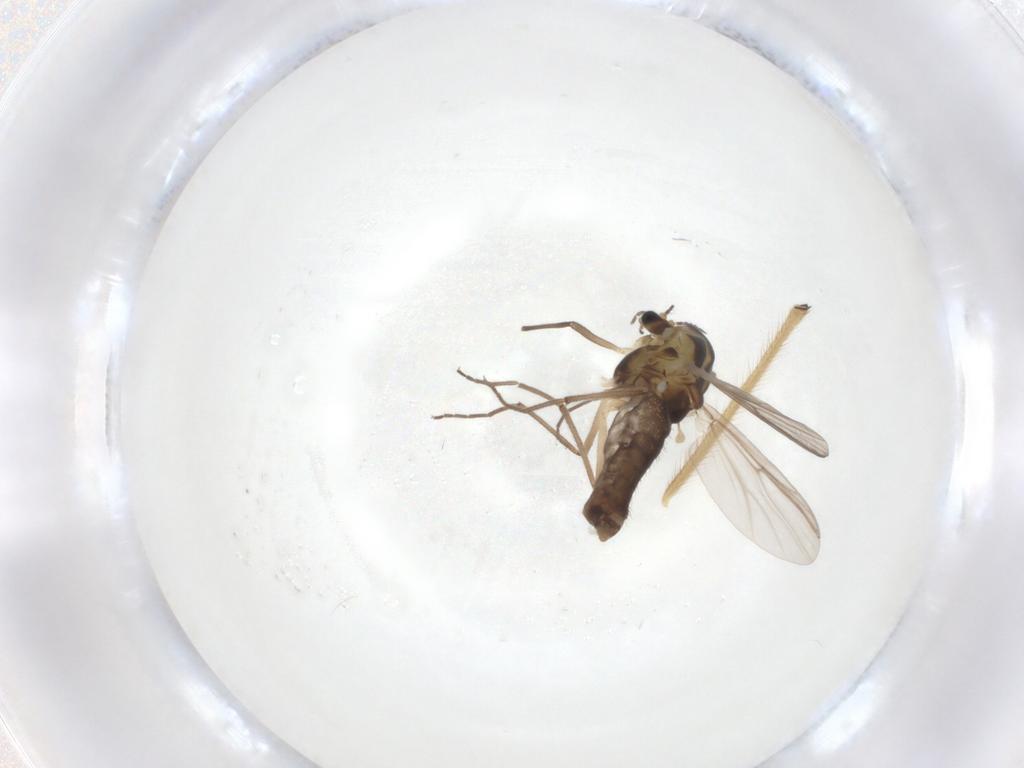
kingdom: Animalia
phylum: Arthropoda
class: Insecta
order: Diptera
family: Chironomidae
